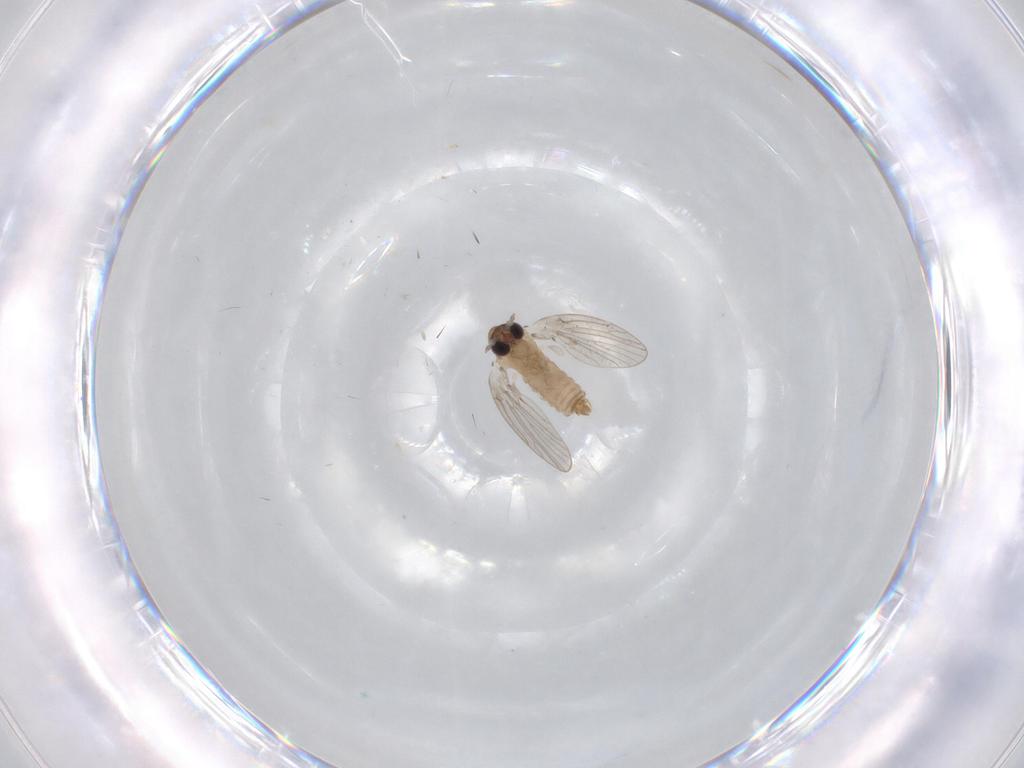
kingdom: Animalia
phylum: Arthropoda
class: Insecta
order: Diptera
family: Psychodidae
